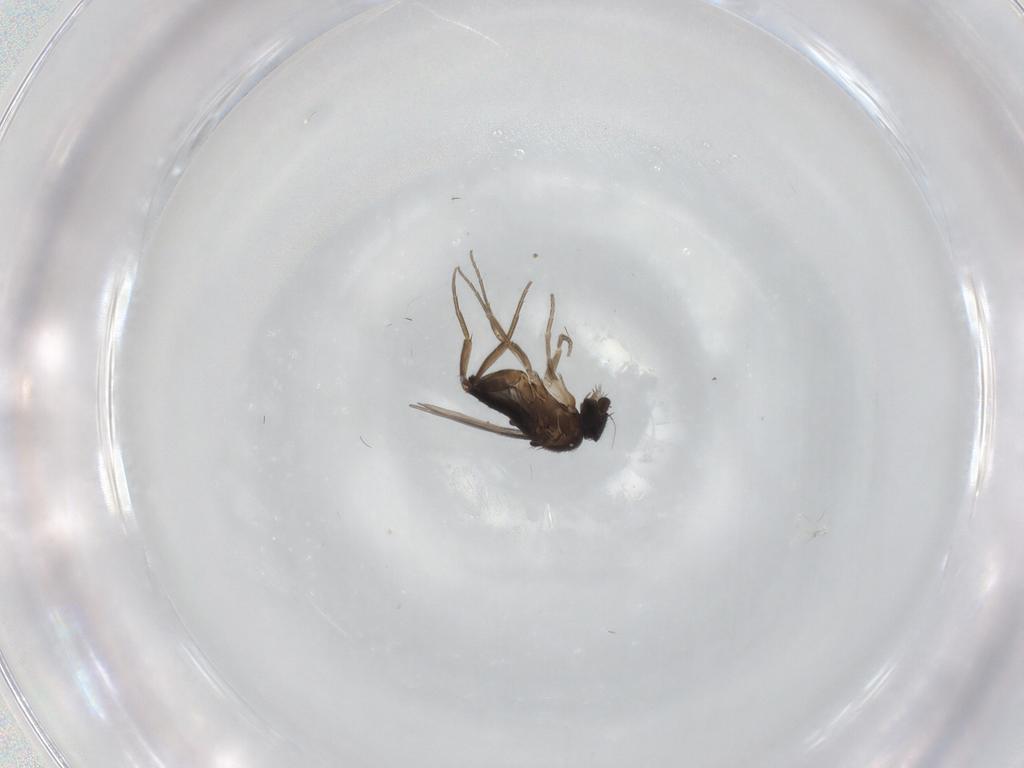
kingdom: Animalia
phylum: Arthropoda
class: Insecta
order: Diptera
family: Phoridae
